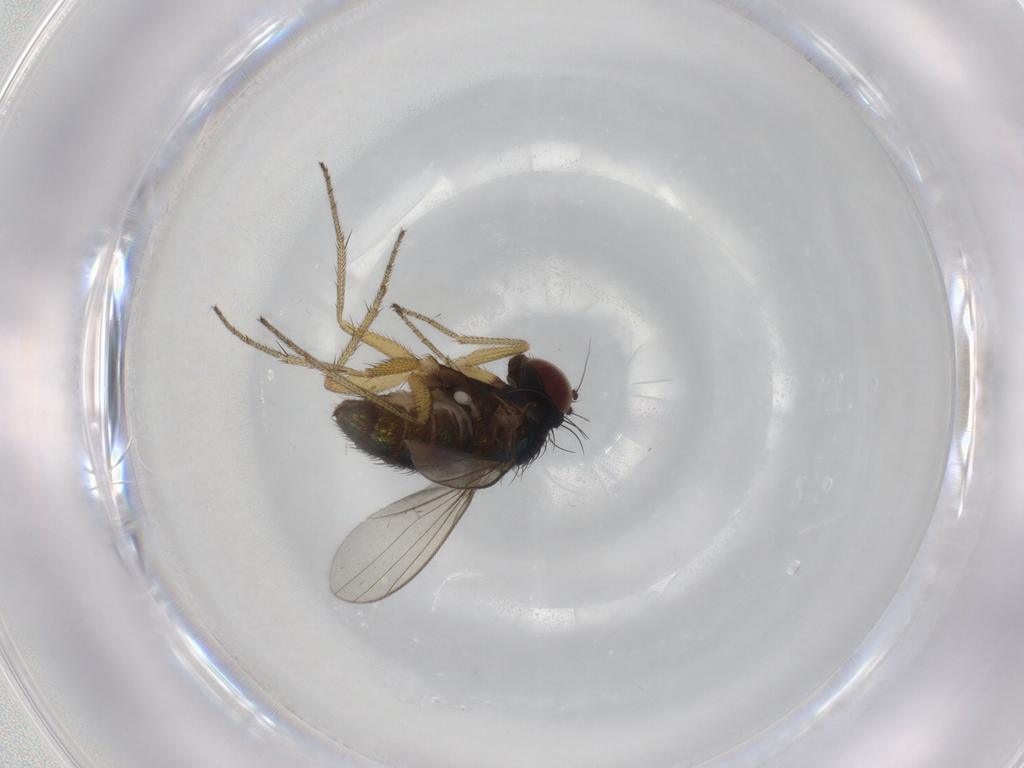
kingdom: Animalia
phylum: Arthropoda
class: Insecta
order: Diptera
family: Dolichopodidae
